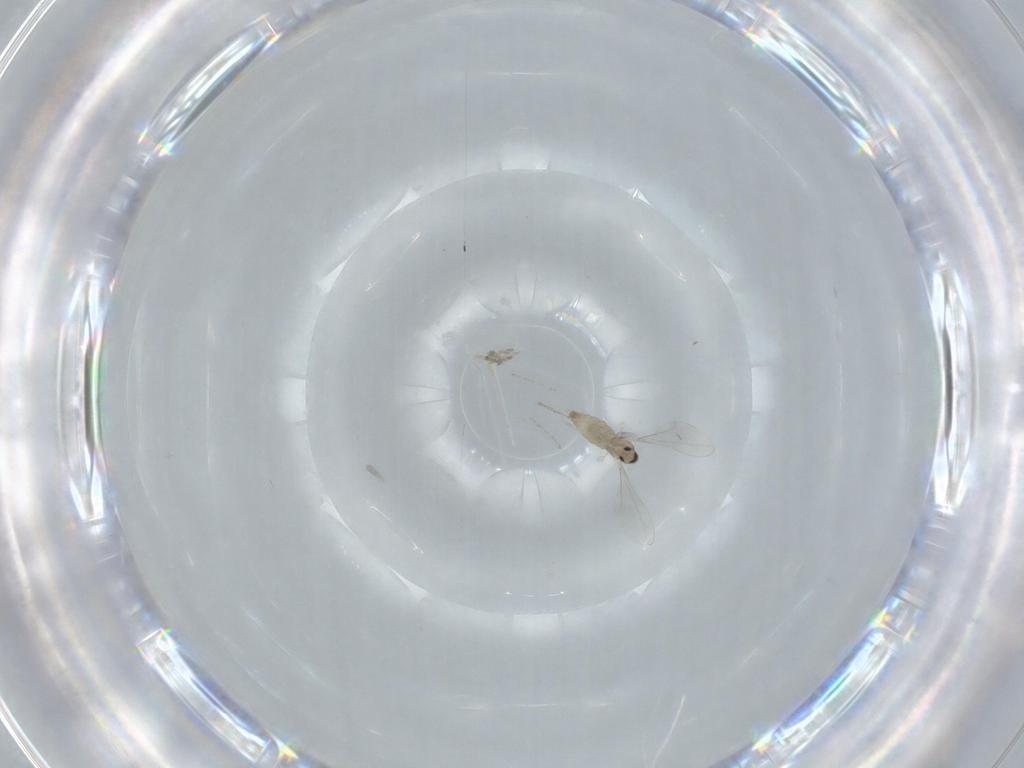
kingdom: Animalia
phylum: Arthropoda
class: Insecta
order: Diptera
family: Cecidomyiidae
